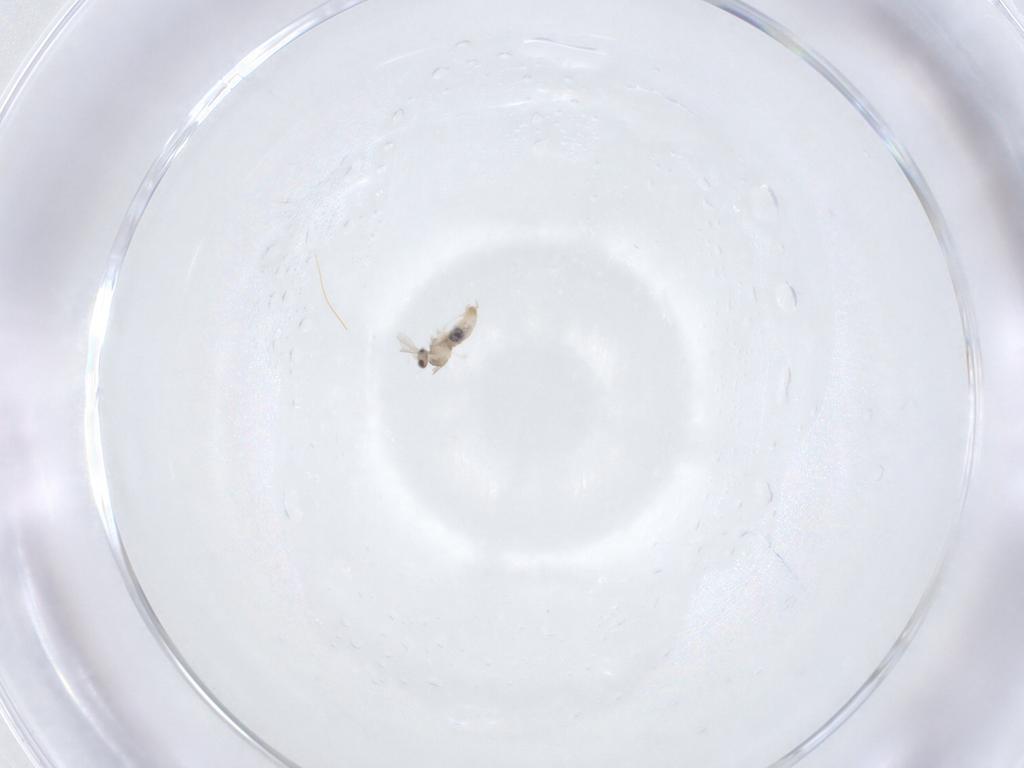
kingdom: Animalia
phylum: Arthropoda
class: Insecta
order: Diptera
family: Cecidomyiidae
